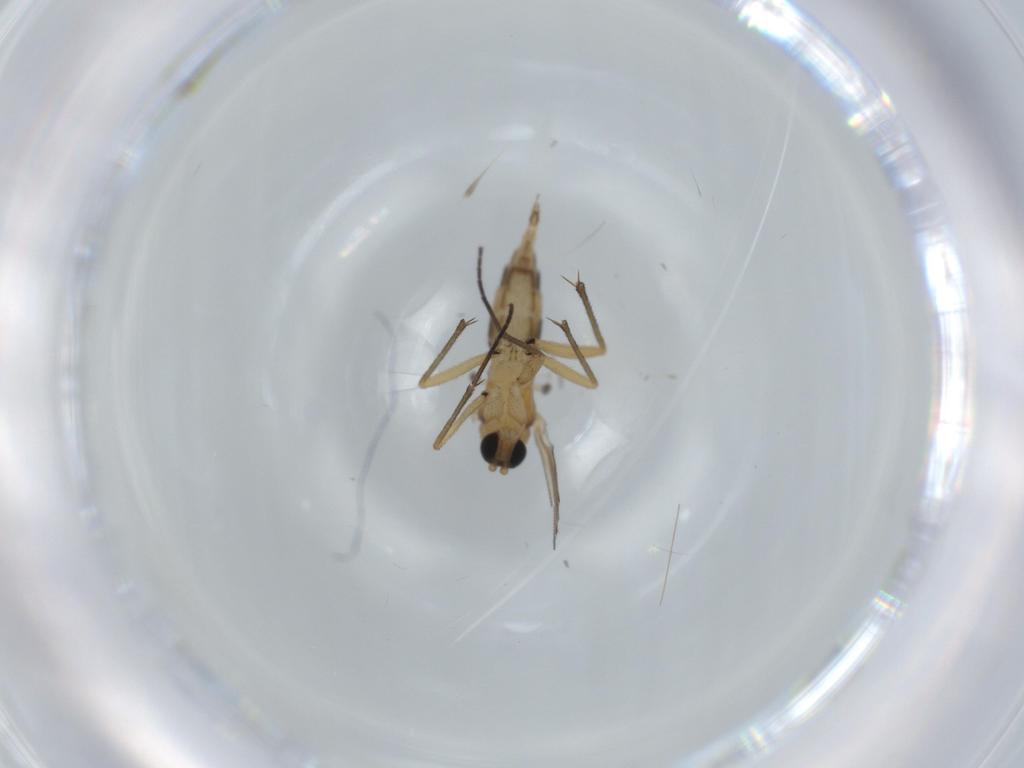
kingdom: Animalia
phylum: Arthropoda
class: Insecta
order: Diptera
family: Sciaridae
